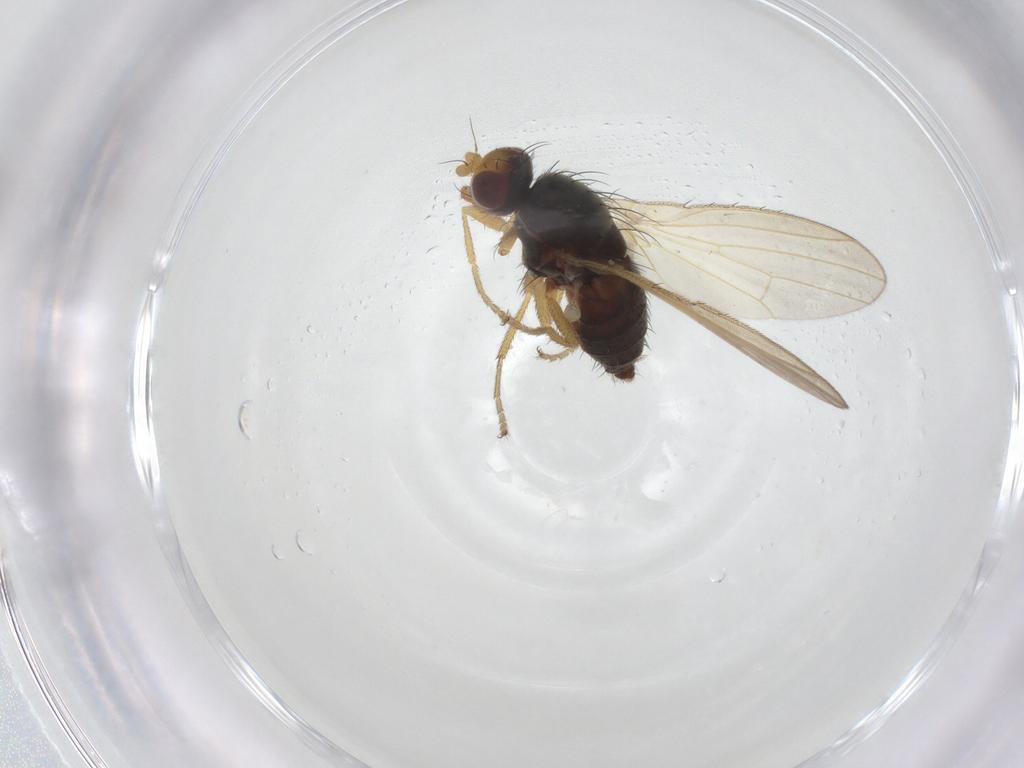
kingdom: Animalia
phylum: Arthropoda
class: Insecta
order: Diptera
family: Heleomyzidae
